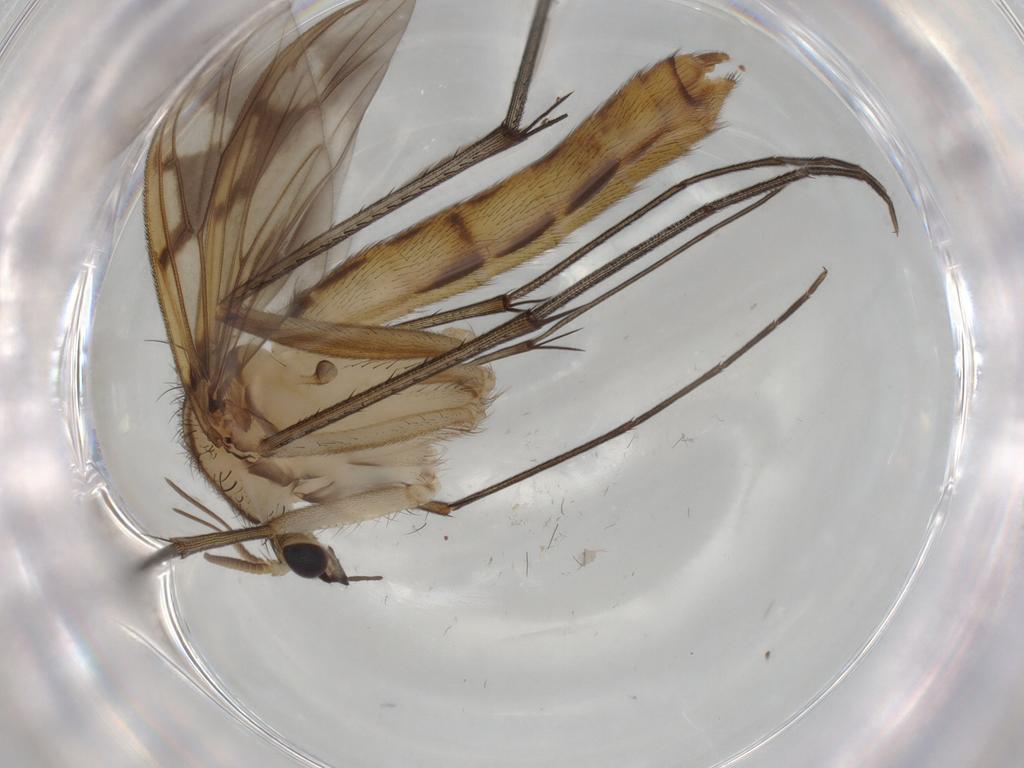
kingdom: Animalia
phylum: Arthropoda
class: Insecta
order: Diptera
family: Mycetophilidae
